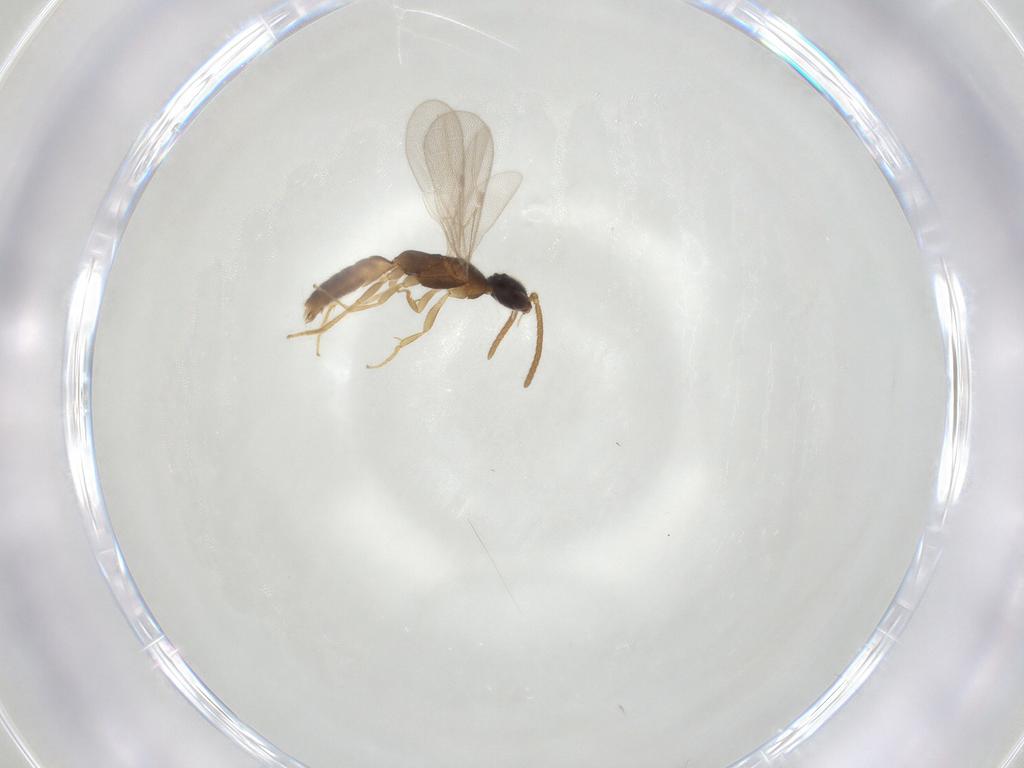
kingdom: Animalia
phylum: Arthropoda
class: Insecta
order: Hymenoptera
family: Bethylidae
